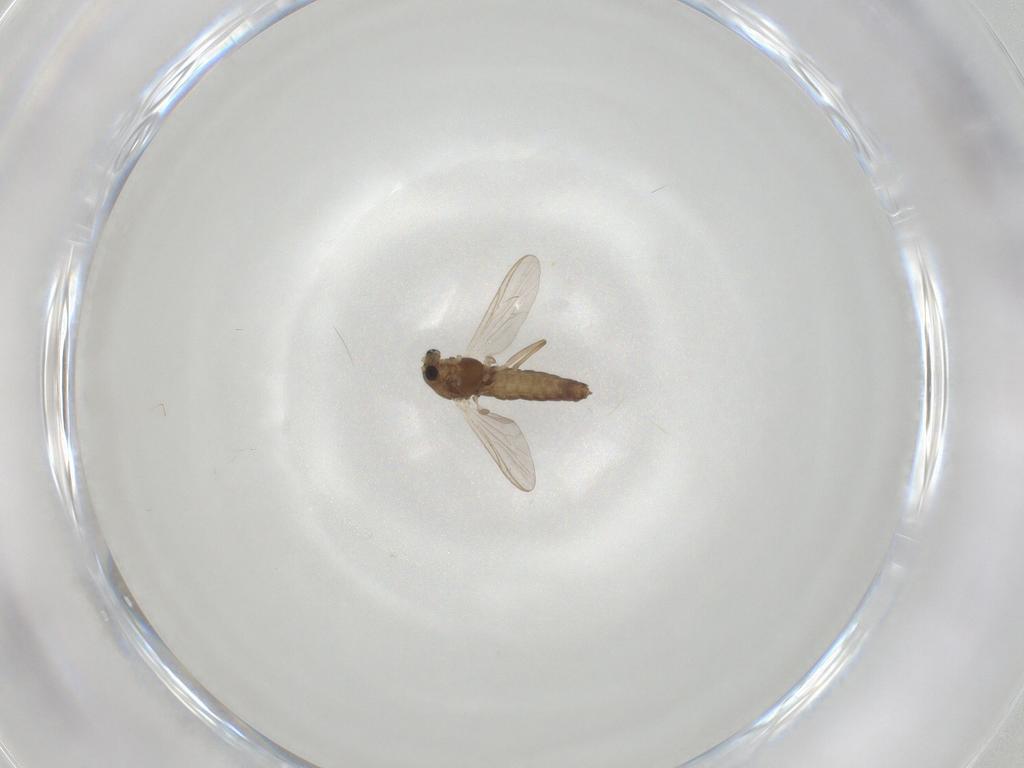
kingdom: Animalia
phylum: Arthropoda
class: Insecta
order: Diptera
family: Chironomidae
